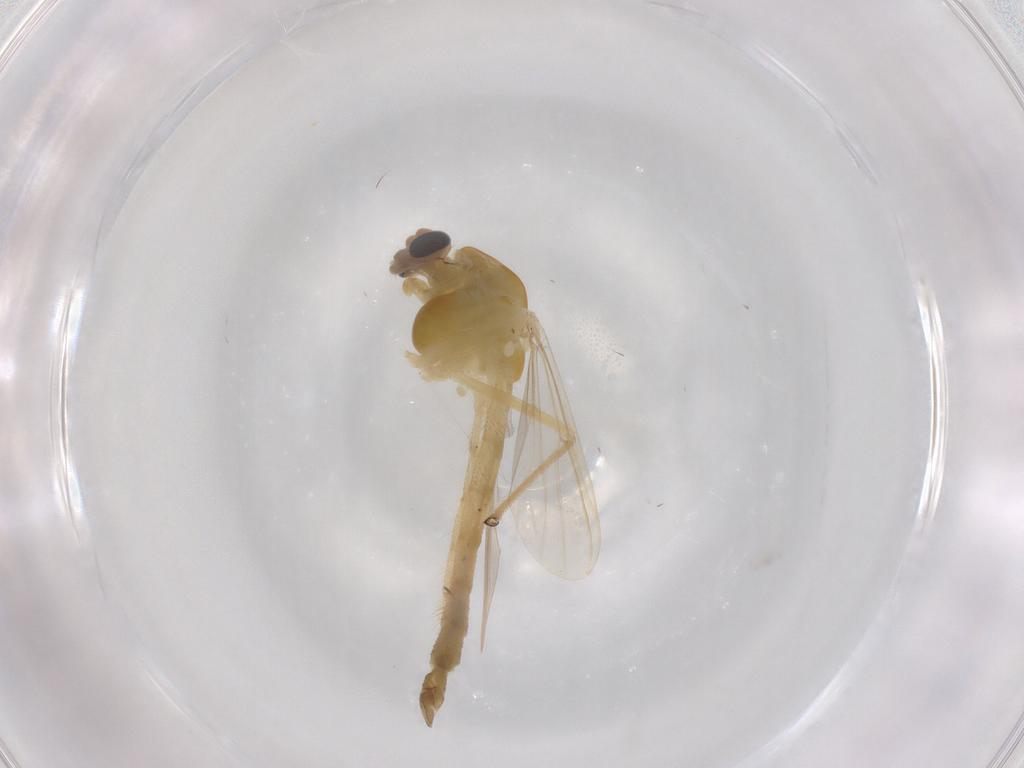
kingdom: Animalia
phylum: Arthropoda
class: Insecta
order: Diptera
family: Chironomidae
